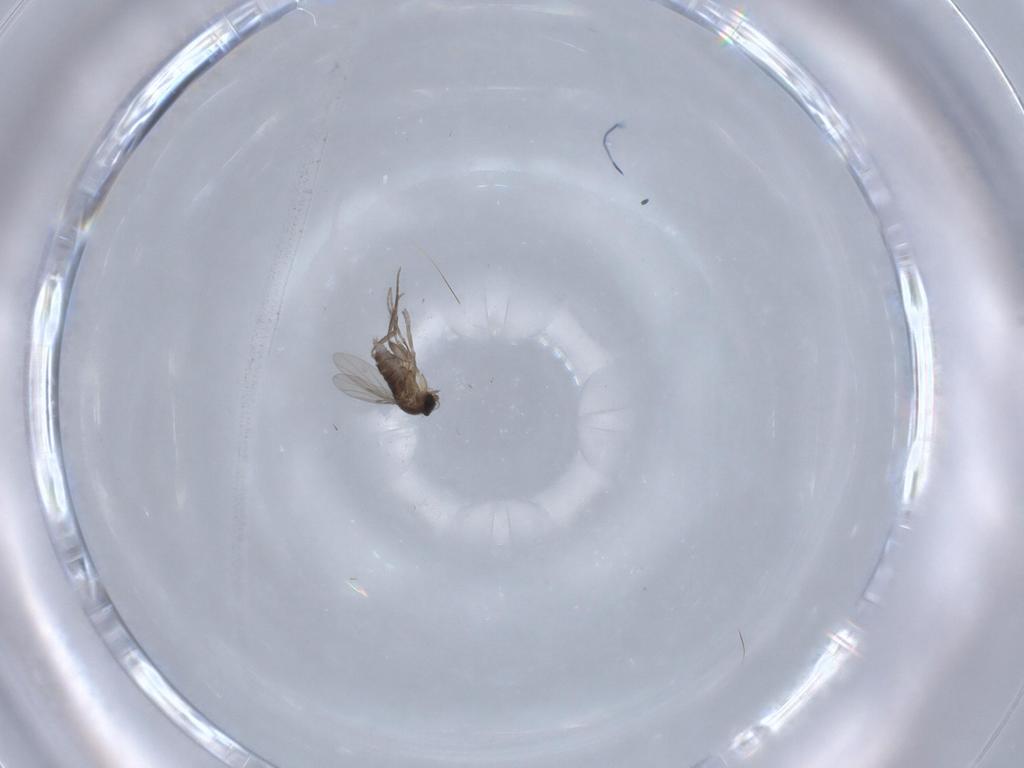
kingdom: Animalia
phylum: Arthropoda
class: Insecta
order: Diptera
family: Phoridae
